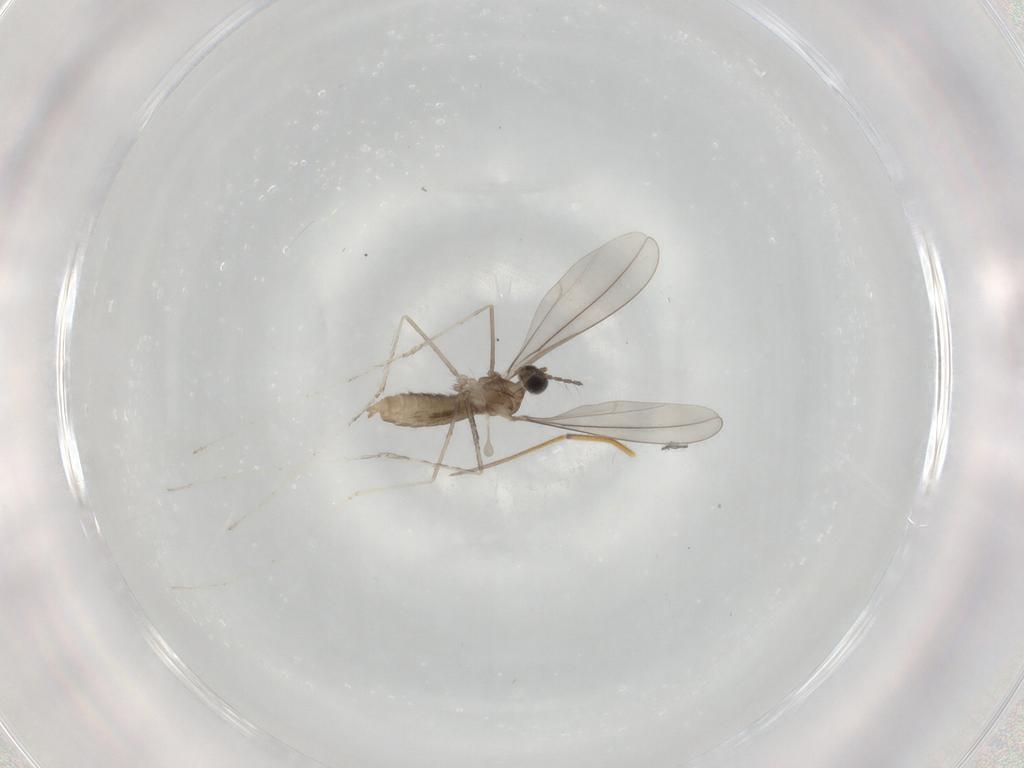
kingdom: Animalia
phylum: Arthropoda
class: Insecta
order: Diptera
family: Cecidomyiidae
